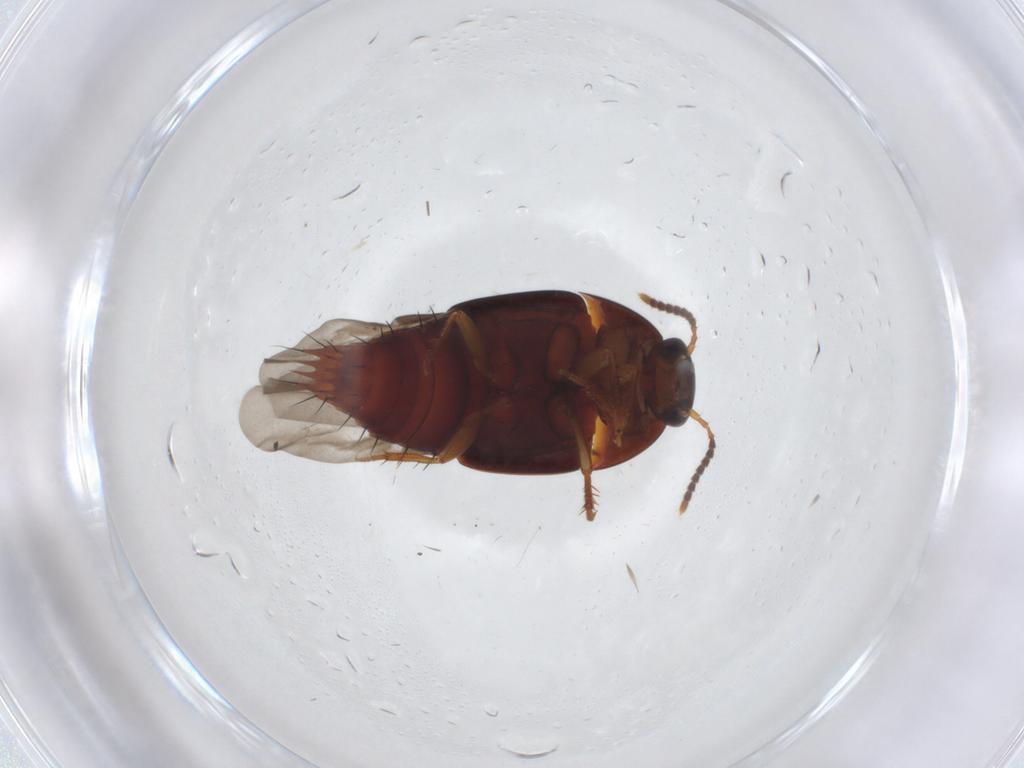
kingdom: Animalia
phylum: Arthropoda
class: Insecta
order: Coleoptera
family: Staphylinidae
